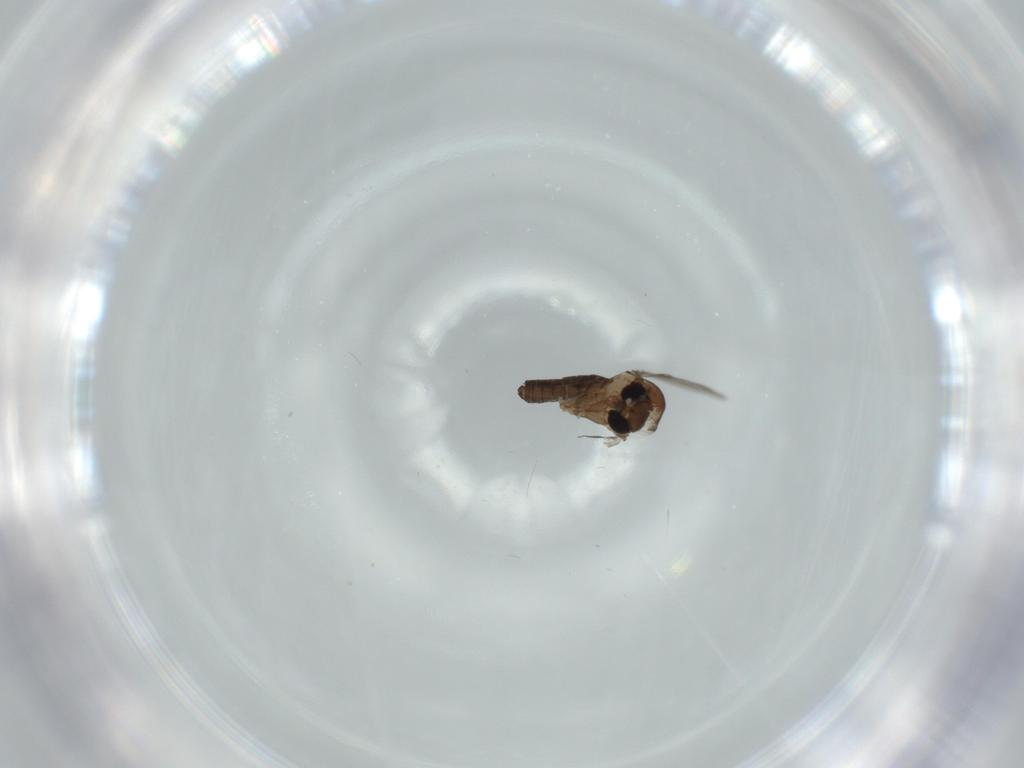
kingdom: Animalia
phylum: Arthropoda
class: Insecta
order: Diptera
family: Psychodidae
